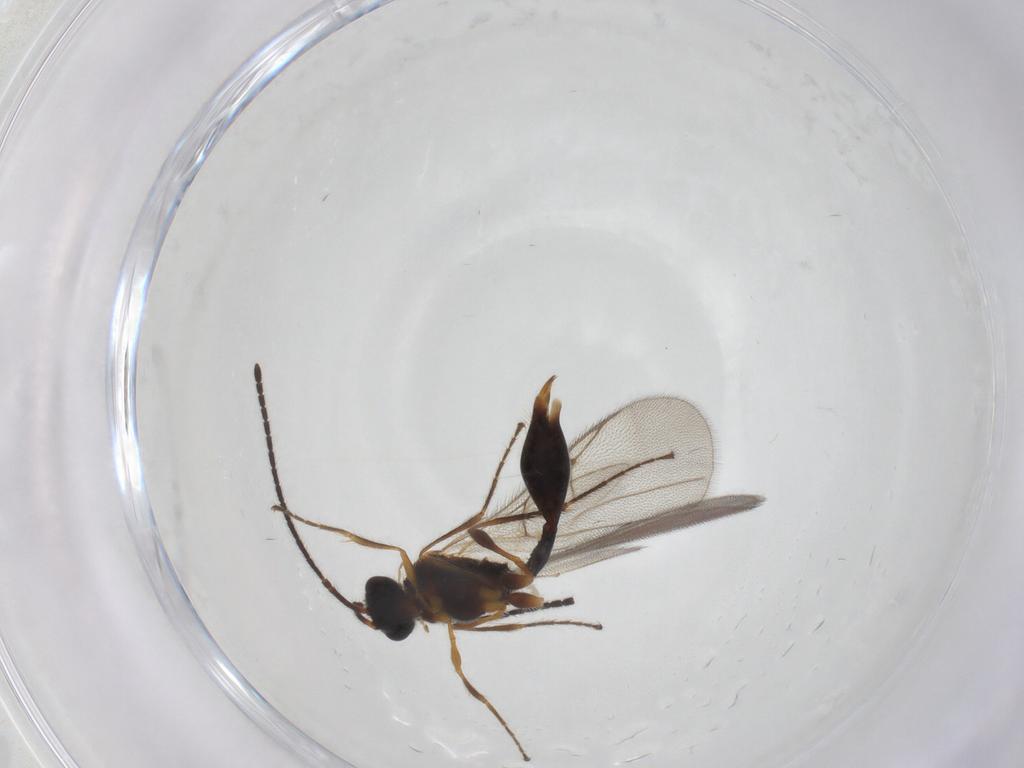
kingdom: Animalia
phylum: Arthropoda
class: Insecta
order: Hymenoptera
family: Diapriidae
